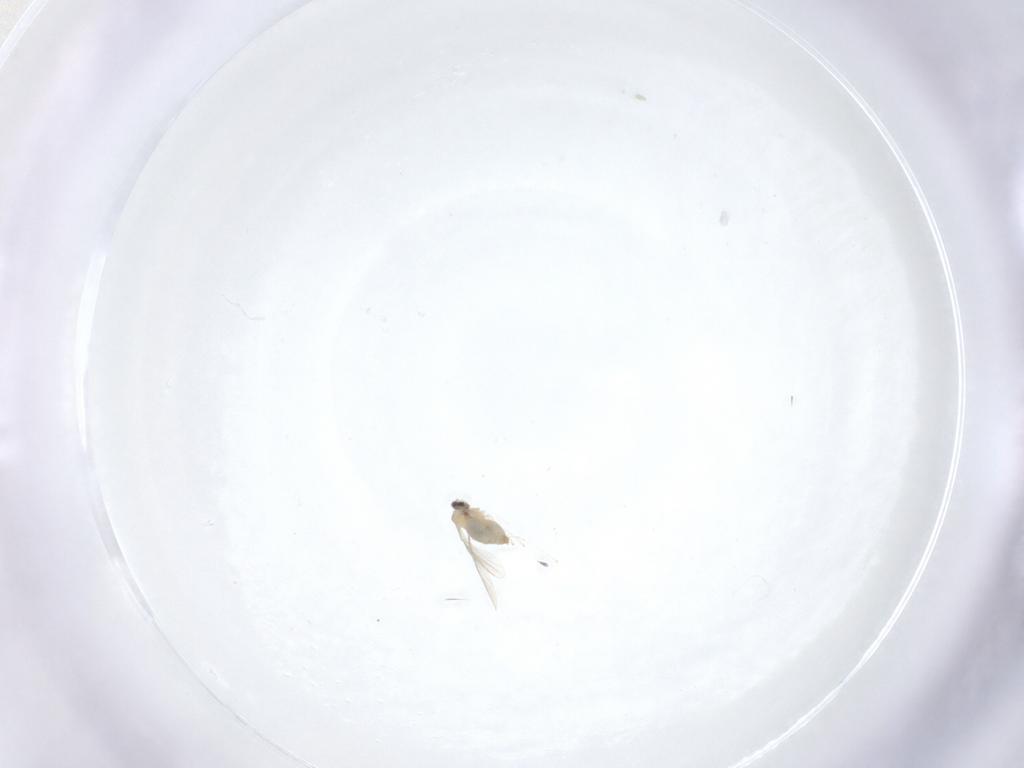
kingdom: Animalia
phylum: Arthropoda
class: Insecta
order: Diptera
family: Cecidomyiidae
